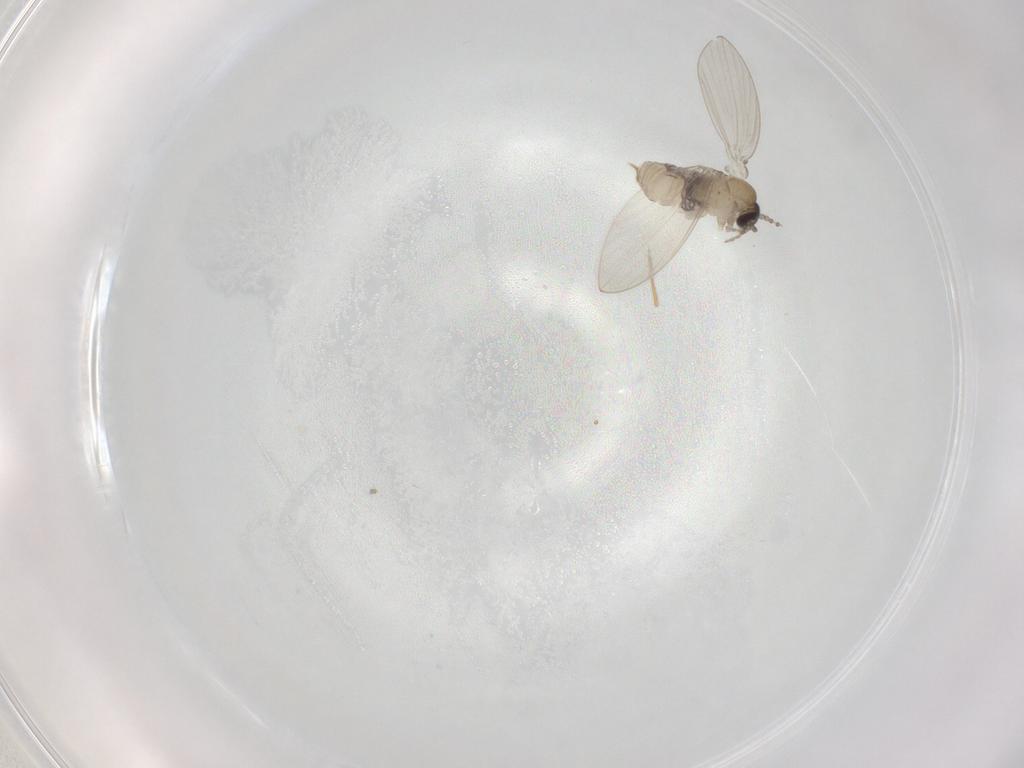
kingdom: Animalia
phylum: Arthropoda
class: Insecta
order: Diptera
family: Psychodidae
